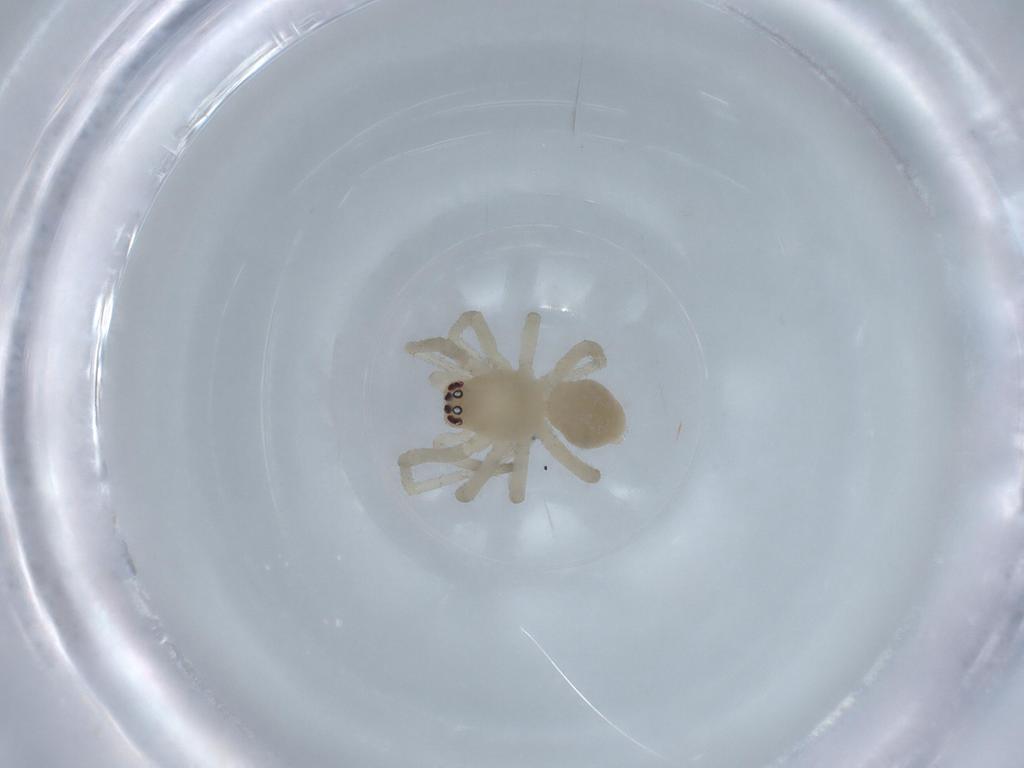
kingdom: Animalia
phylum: Arthropoda
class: Arachnida
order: Araneae
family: Cheiracanthiidae
